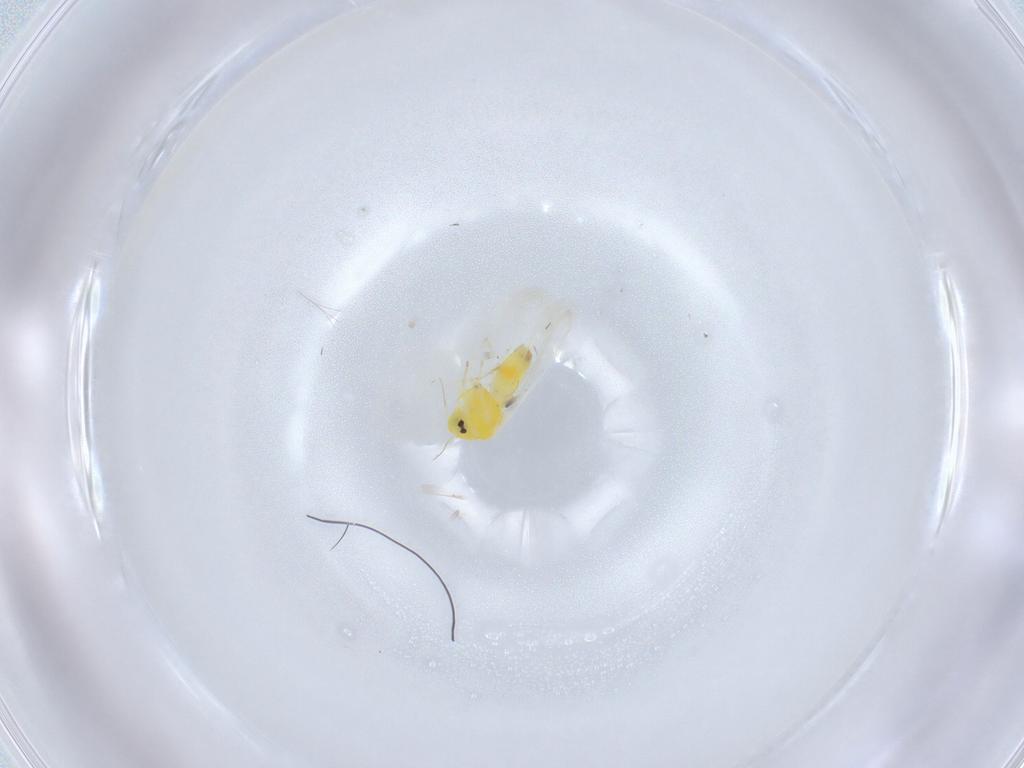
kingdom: Animalia
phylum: Arthropoda
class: Insecta
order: Hemiptera
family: Aleyrodidae
